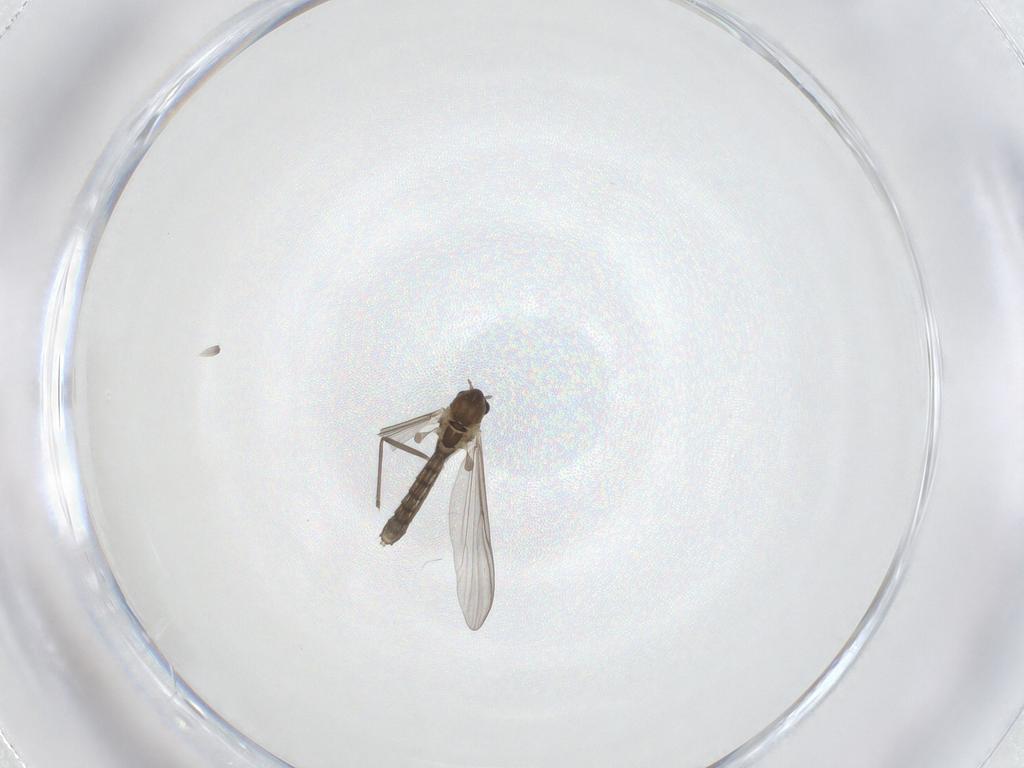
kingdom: Animalia
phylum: Arthropoda
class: Insecta
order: Diptera
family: Chironomidae
